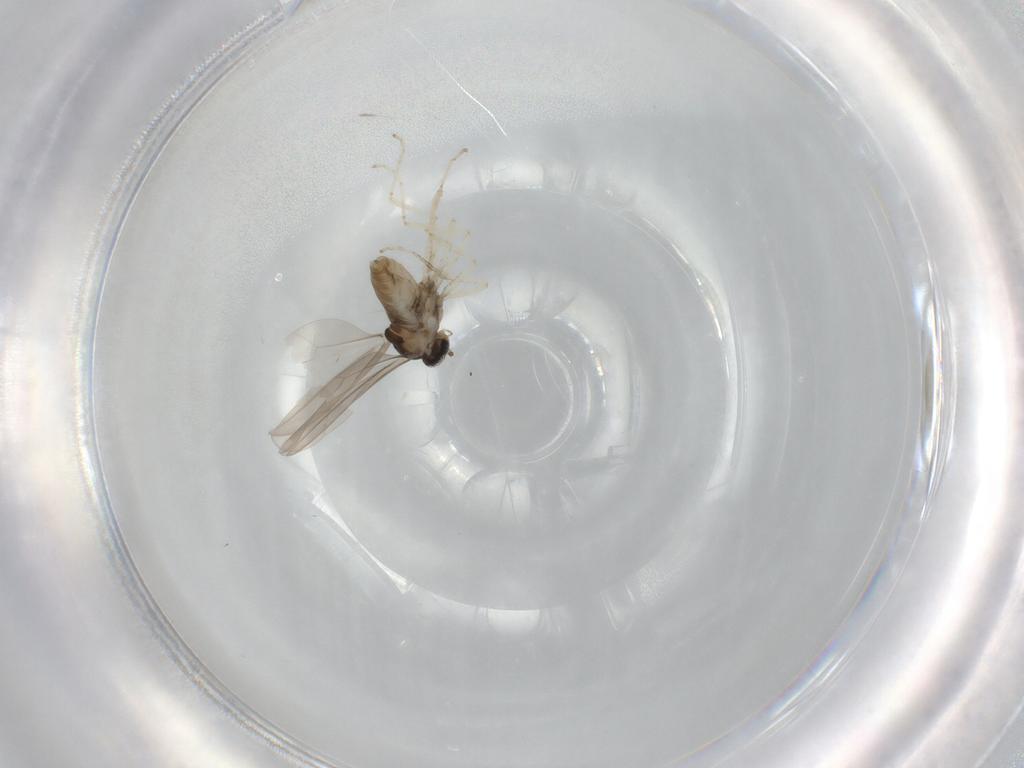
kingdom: Animalia
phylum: Arthropoda
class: Insecta
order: Diptera
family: Cecidomyiidae
